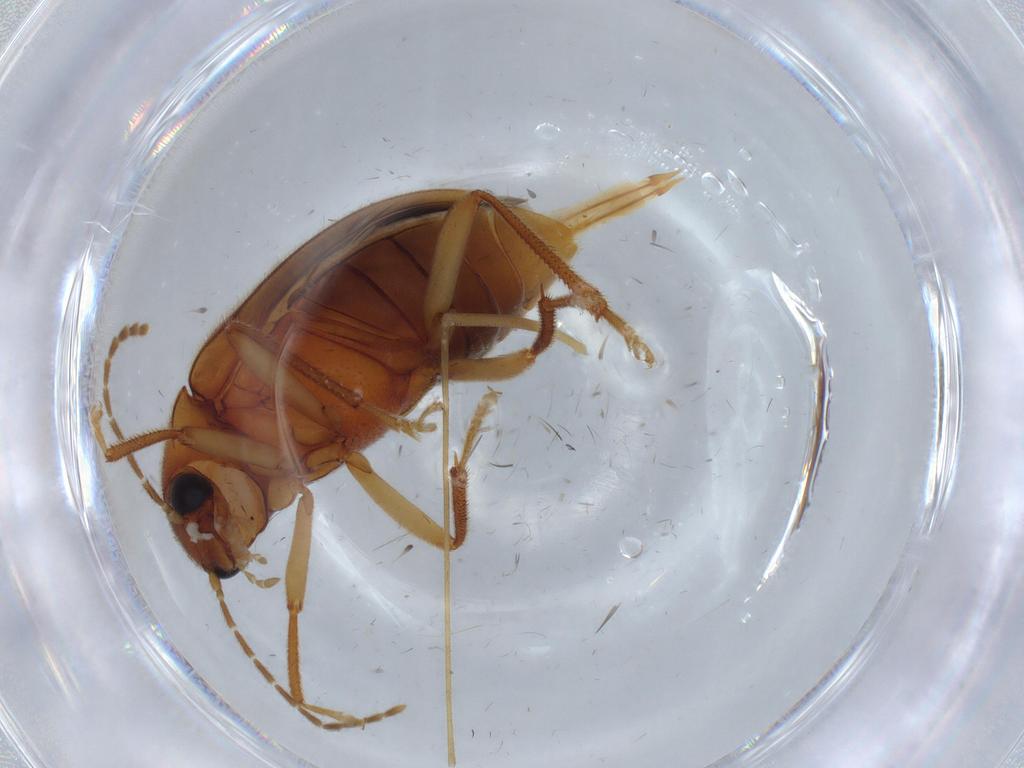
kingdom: Animalia
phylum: Arthropoda
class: Insecta
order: Coleoptera
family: Ptilodactylidae
